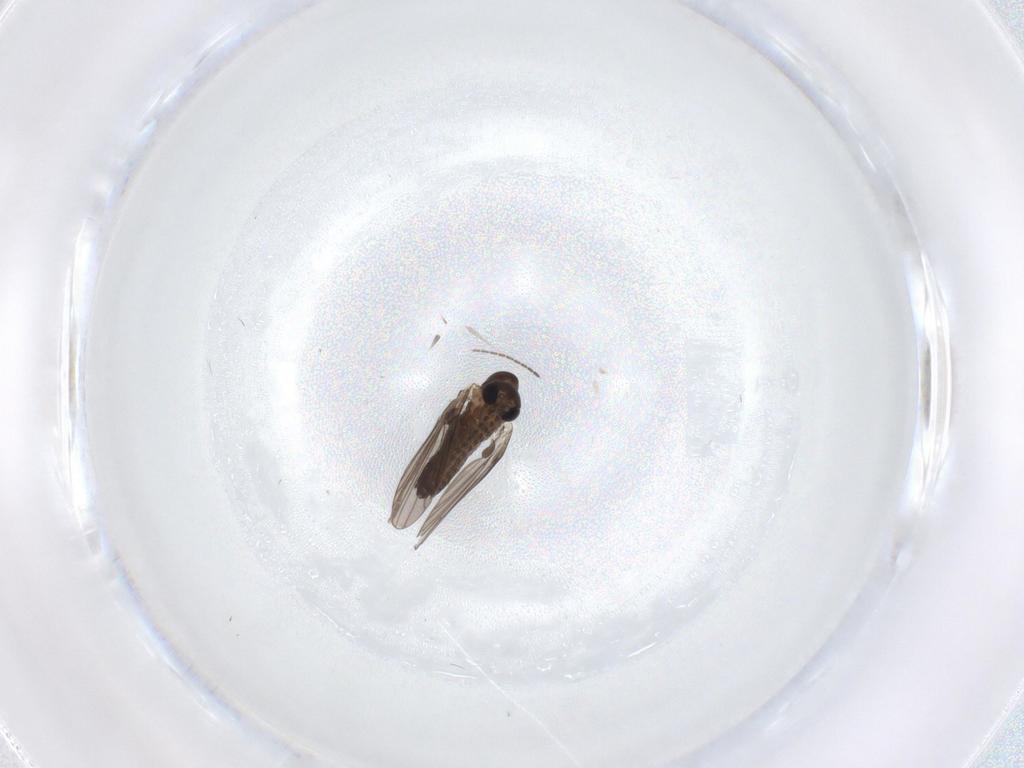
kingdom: Animalia
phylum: Arthropoda
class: Insecta
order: Diptera
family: Sciaridae
